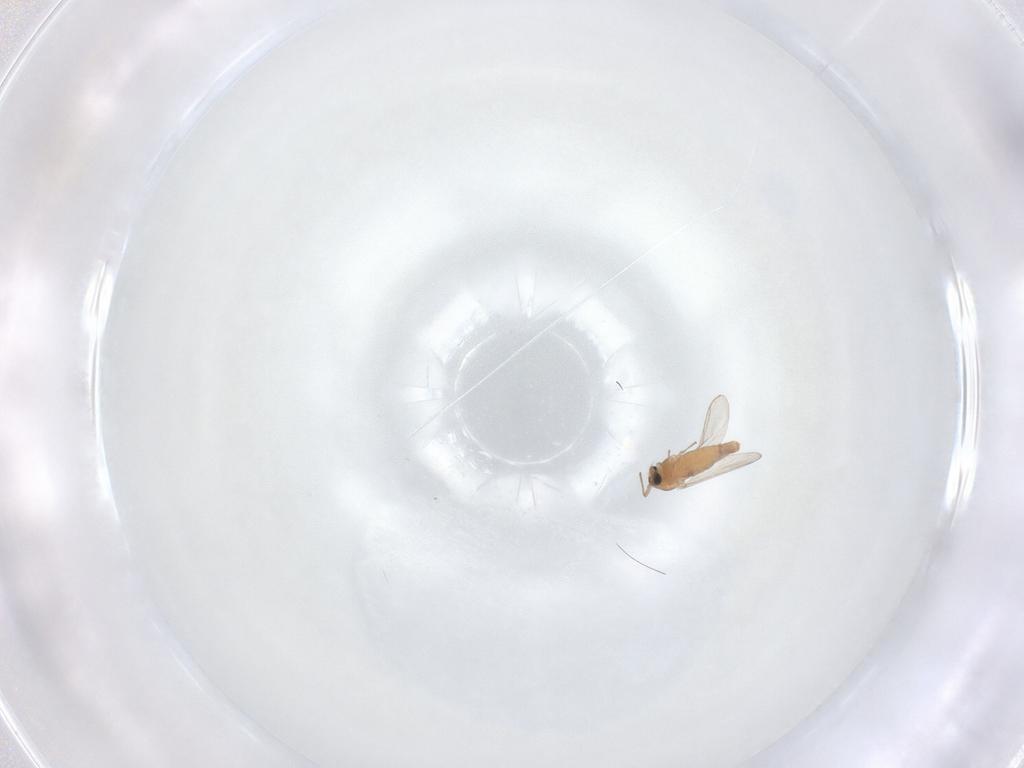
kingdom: Animalia
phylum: Arthropoda
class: Insecta
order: Diptera
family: Chironomidae
